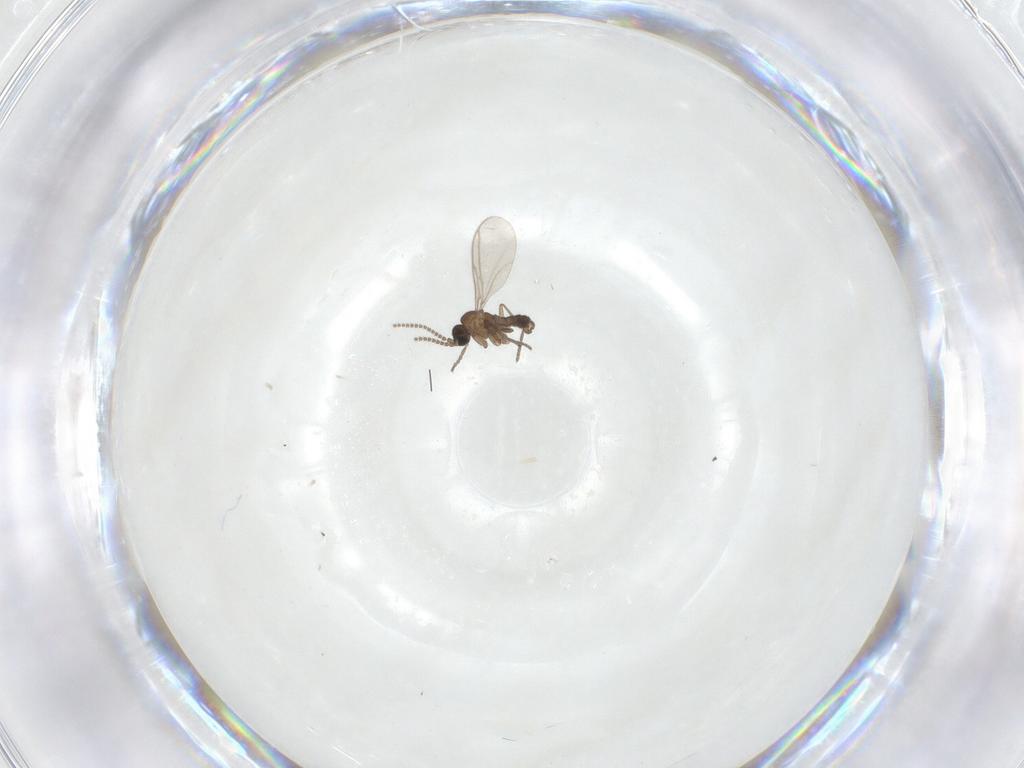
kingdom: Animalia
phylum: Arthropoda
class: Insecta
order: Diptera
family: Sciaridae
